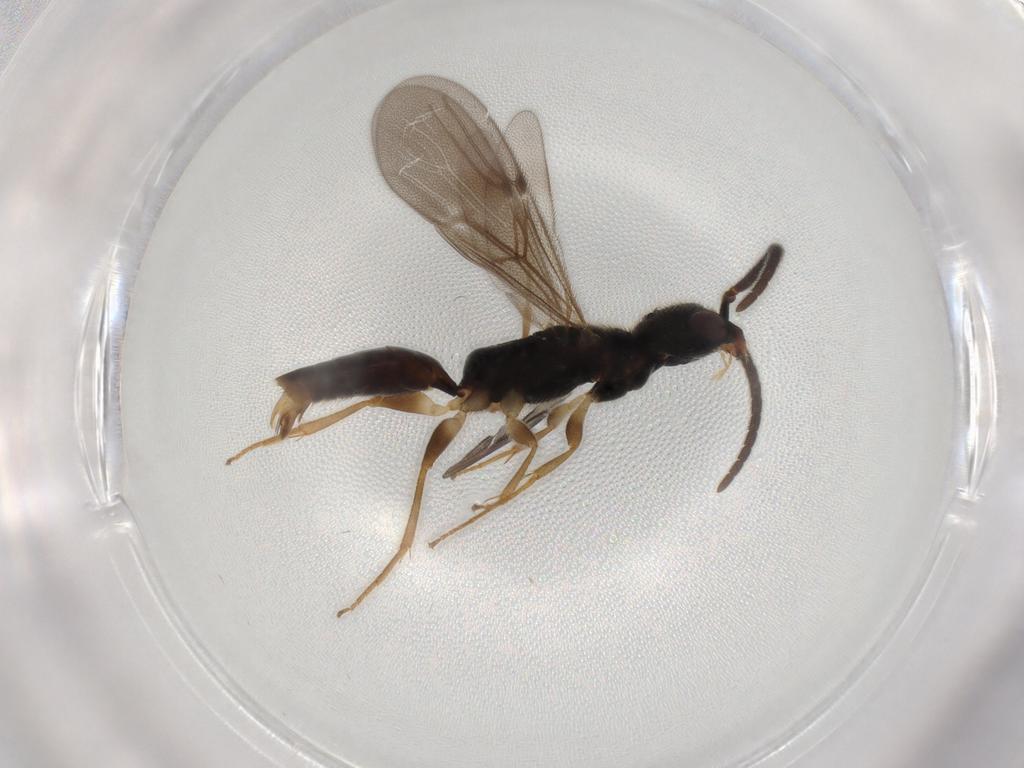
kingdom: Animalia
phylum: Arthropoda
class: Insecta
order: Hymenoptera
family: Bethylidae
